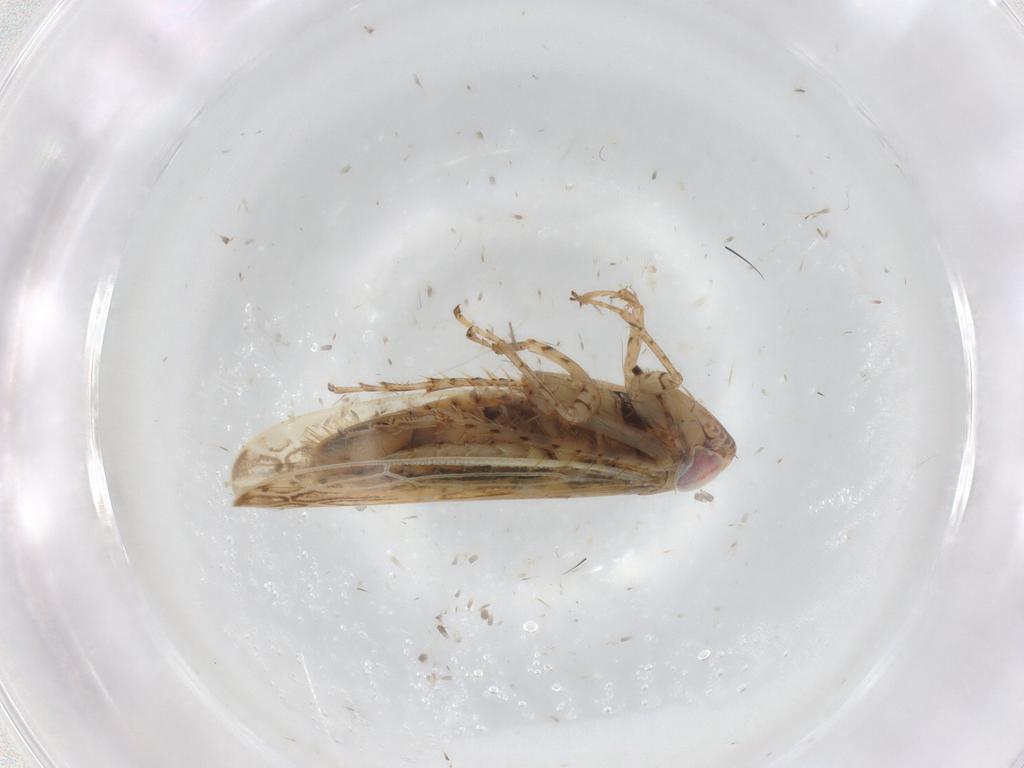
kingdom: Animalia
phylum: Arthropoda
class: Insecta
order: Hemiptera
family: Cicadellidae
